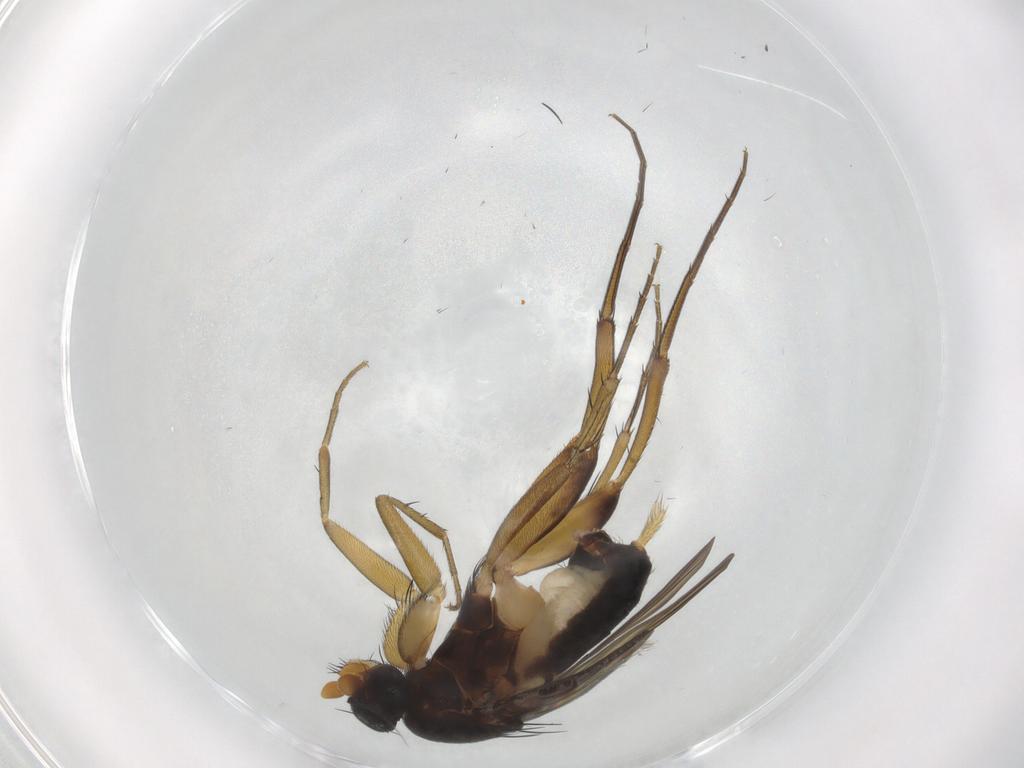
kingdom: Animalia
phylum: Arthropoda
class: Insecta
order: Diptera
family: Phoridae
